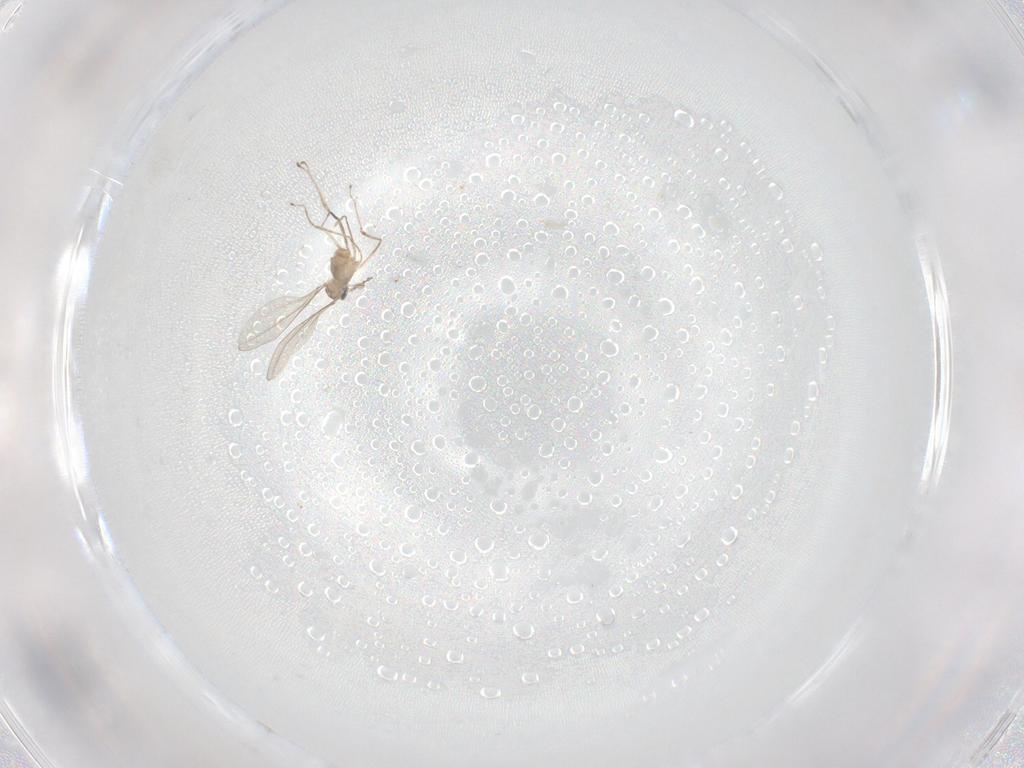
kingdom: Animalia
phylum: Arthropoda
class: Insecta
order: Diptera
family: Cecidomyiidae
